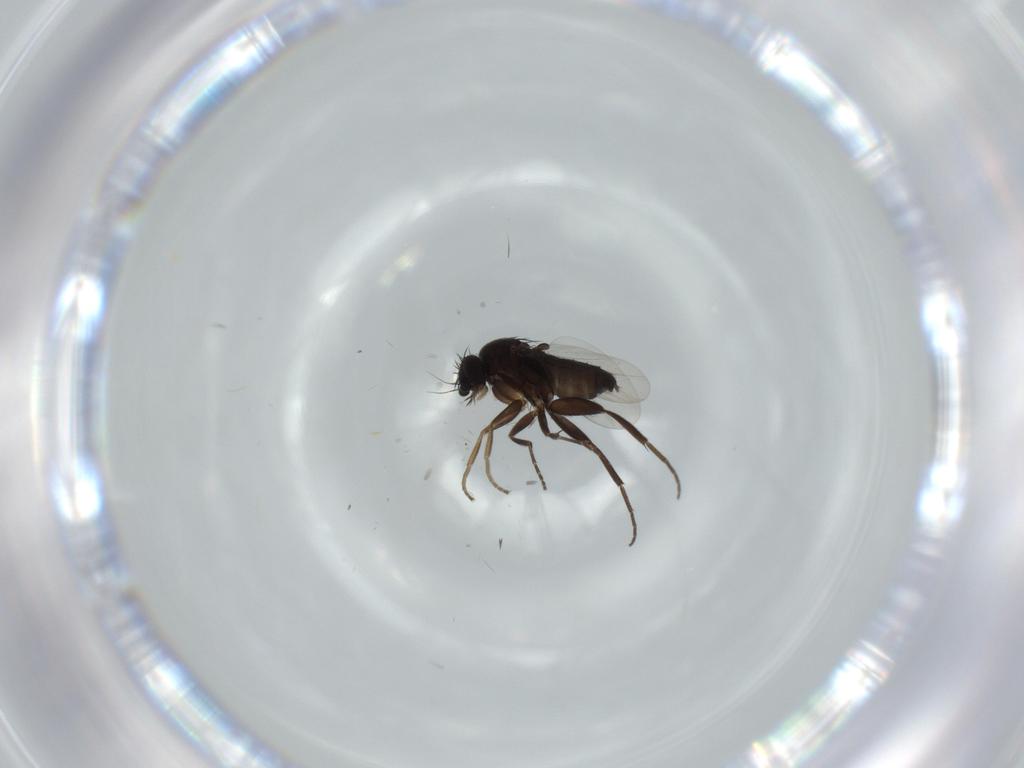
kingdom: Animalia
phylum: Arthropoda
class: Insecta
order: Diptera
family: Phoridae
